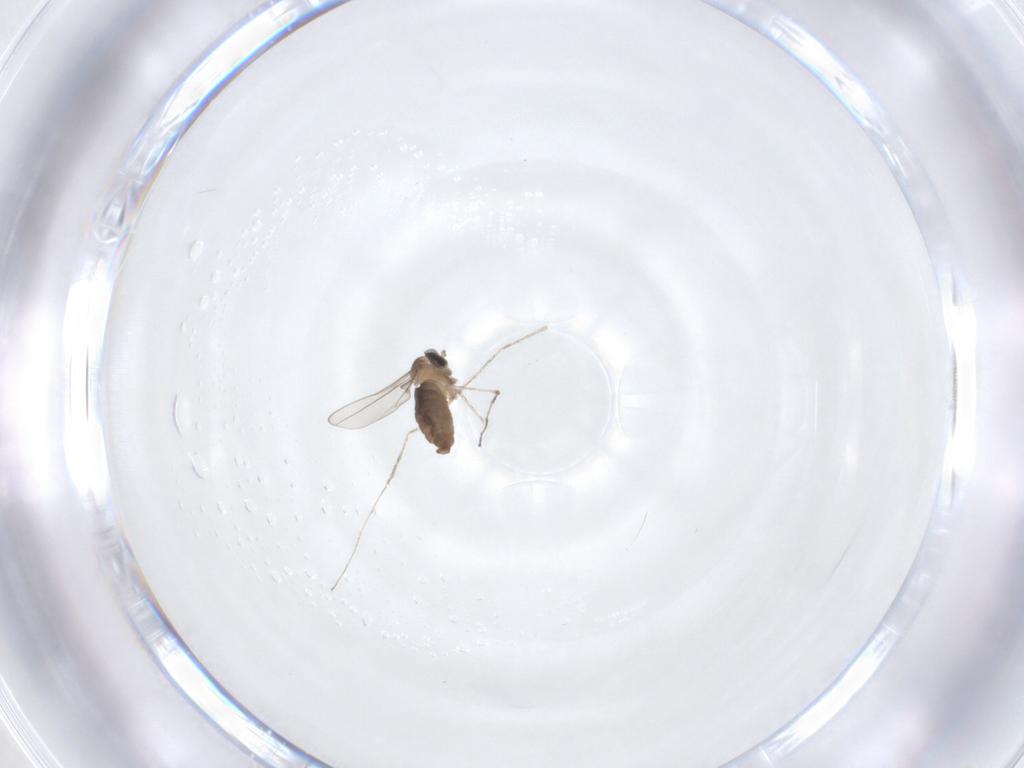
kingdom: Animalia
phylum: Arthropoda
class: Insecta
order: Diptera
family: Cecidomyiidae
